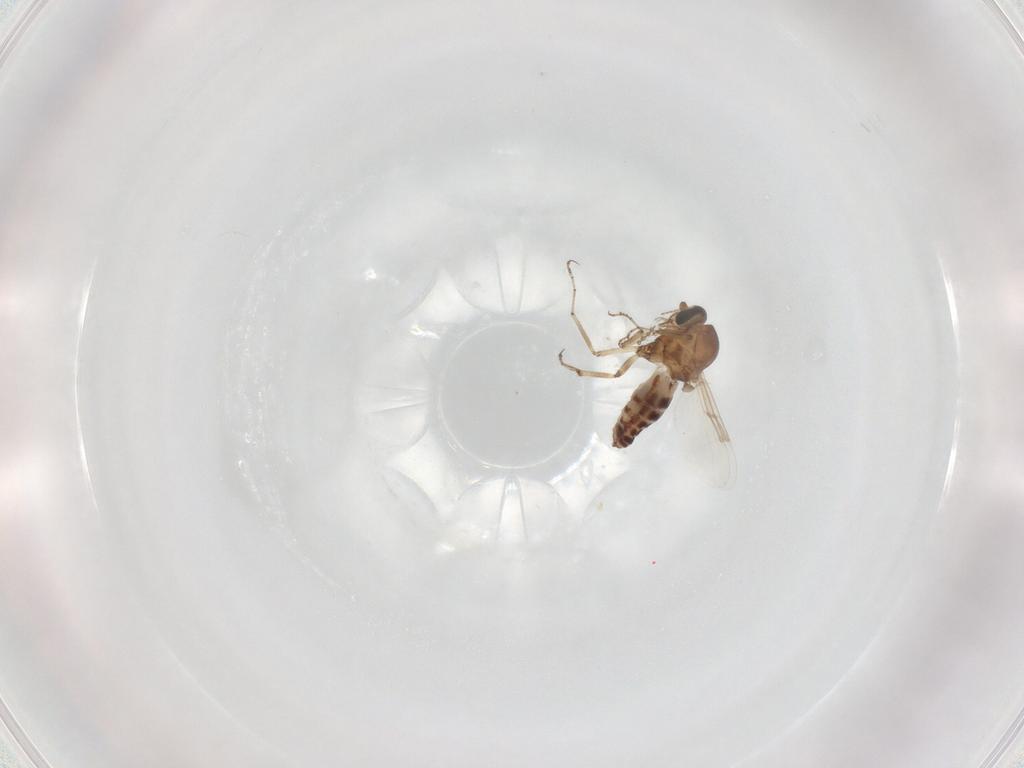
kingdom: Animalia
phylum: Arthropoda
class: Insecta
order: Diptera
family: Ceratopogonidae
